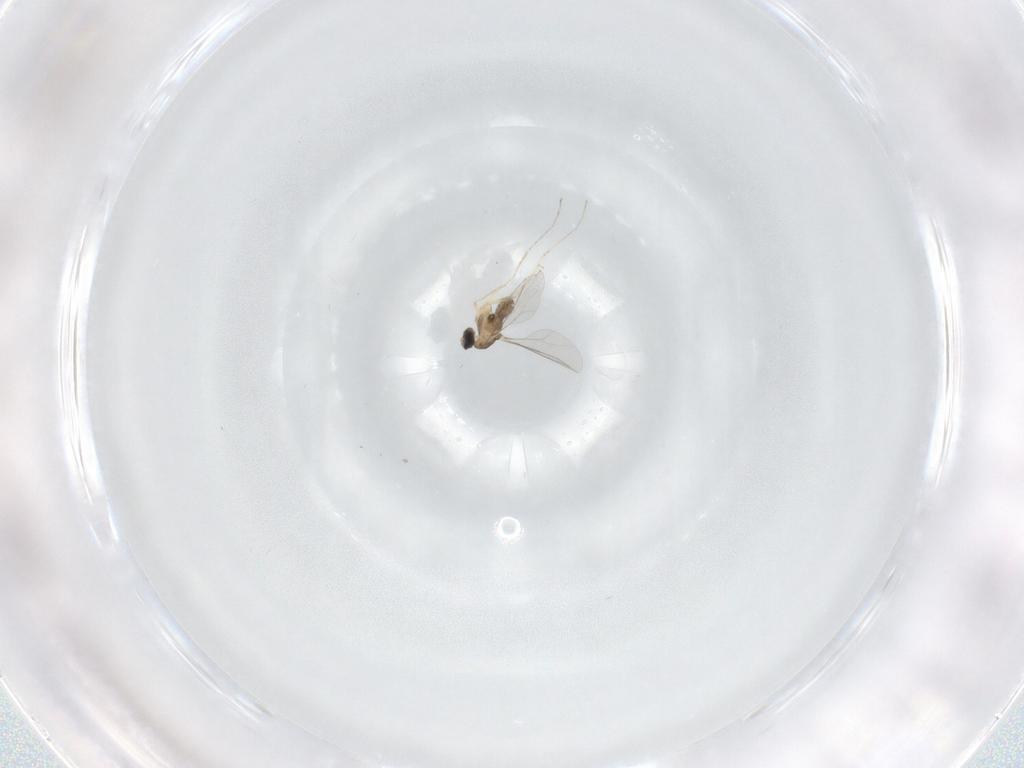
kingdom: Animalia
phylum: Arthropoda
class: Insecta
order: Diptera
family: Cecidomyiidae
